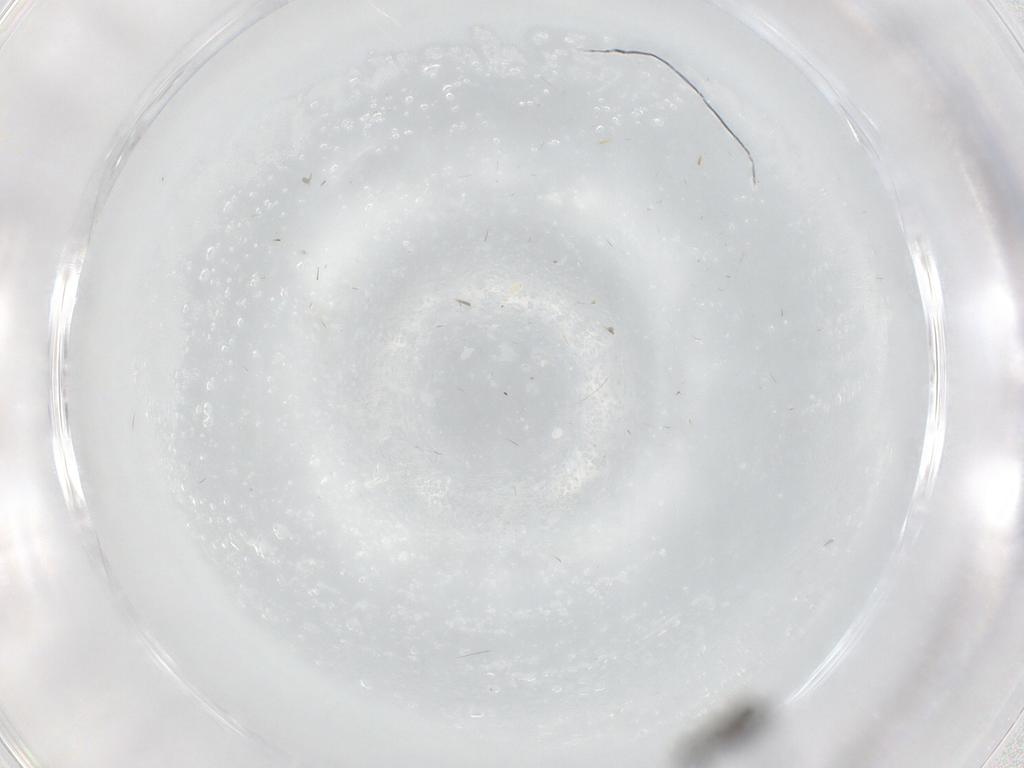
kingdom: Animalia
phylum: Arthropoda
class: Insecta
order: Diptera
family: Phoridae
